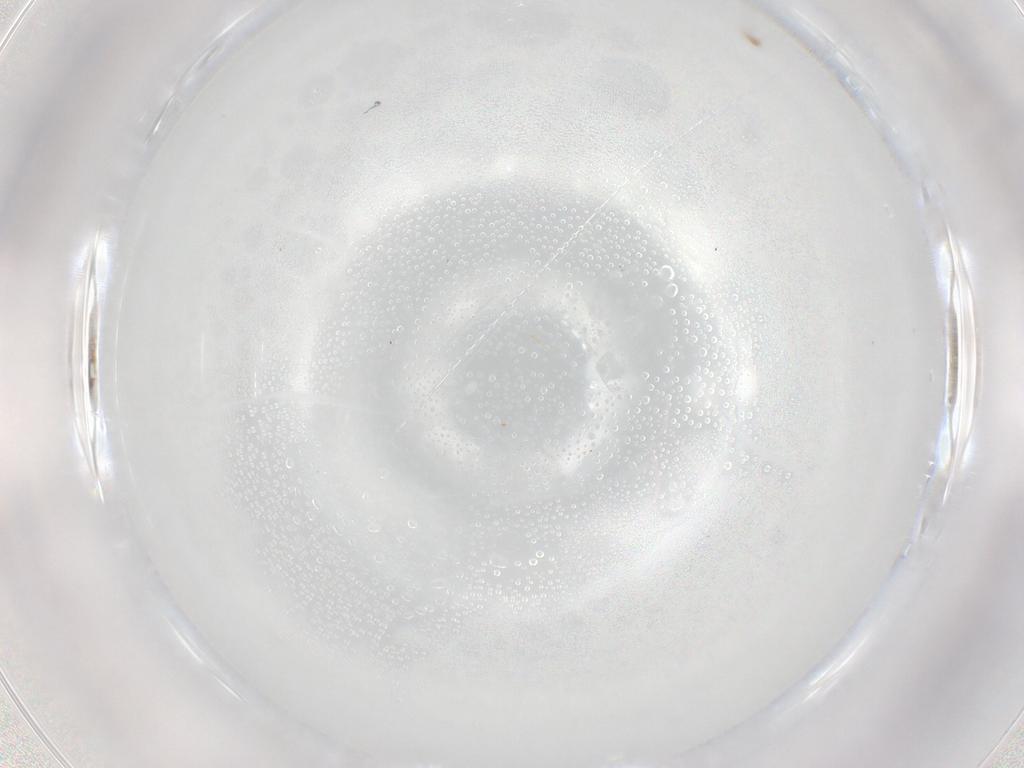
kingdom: Animalia
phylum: Arthropoda
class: Arachnida
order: Trombidiformes
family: Pygmephoridae
